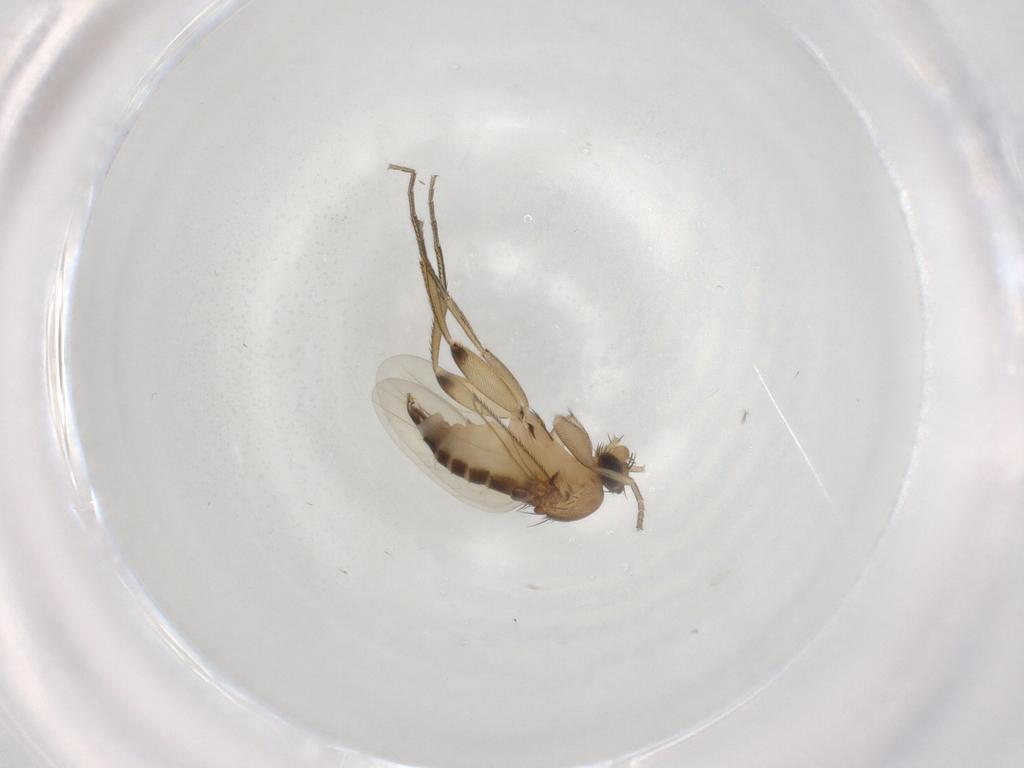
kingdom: Animalia
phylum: Arthropoda
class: Insecta
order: Diptera
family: Phoridae
